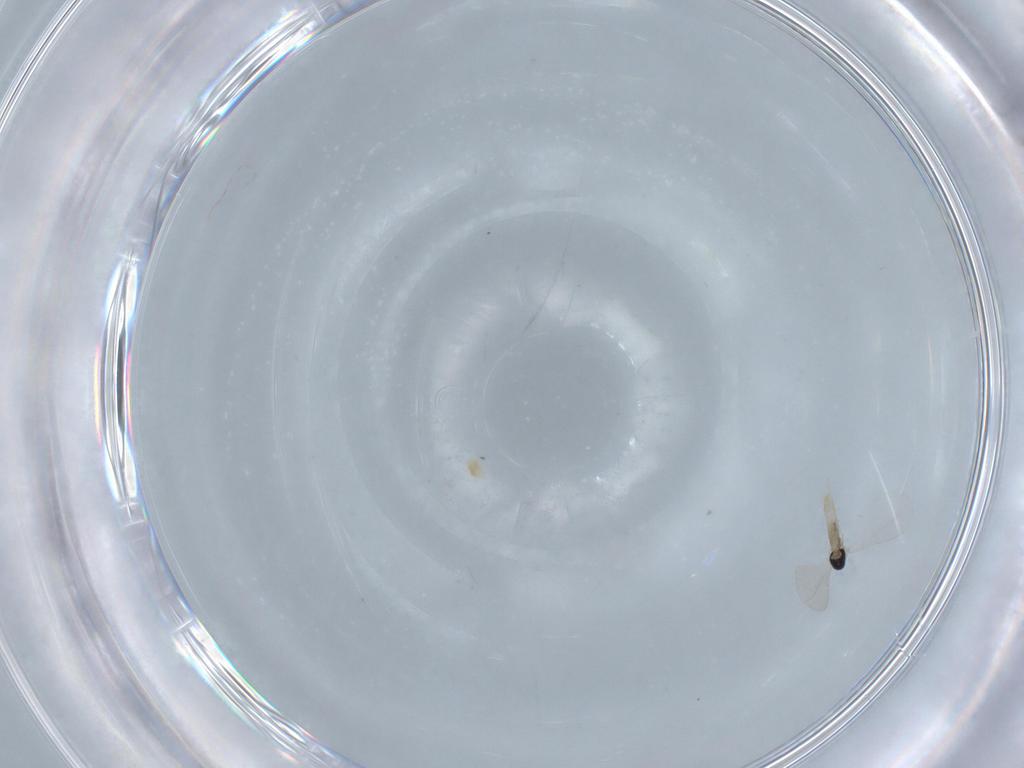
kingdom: Animalia
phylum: Arthropoda
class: Insecta
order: Diptera
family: Cecidomyiidae
